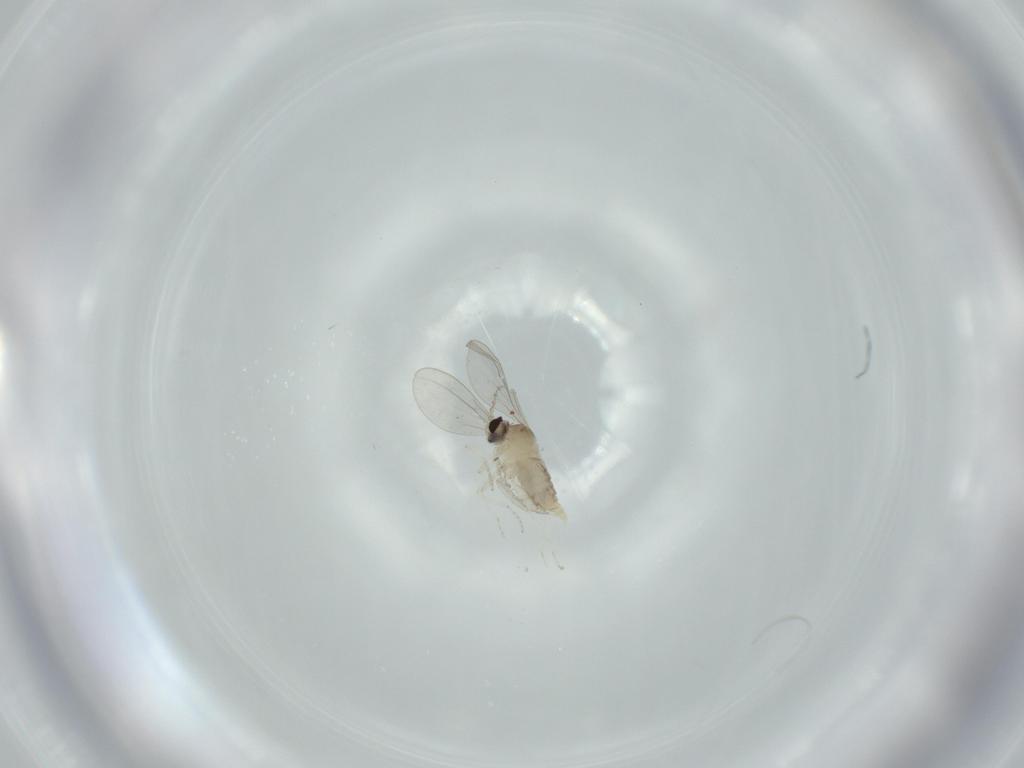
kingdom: Animalia
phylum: Arthropoda
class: Insecta
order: Diptera
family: Cecidomyiidae
